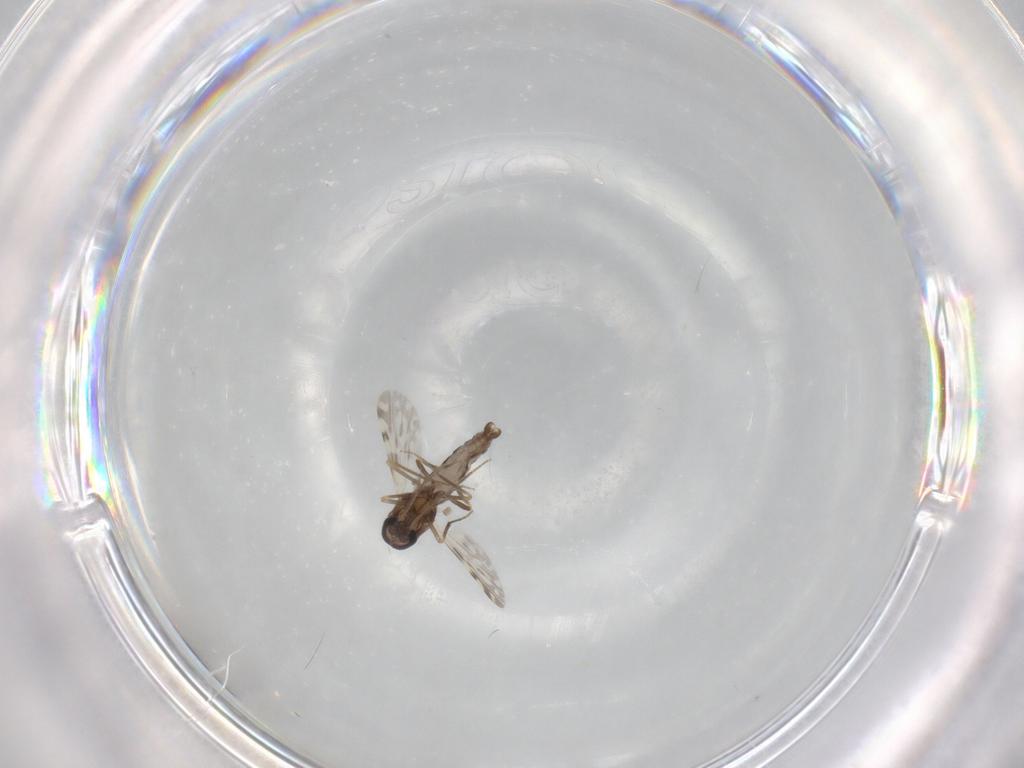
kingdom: Animalia
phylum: Arthropoda
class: Insecta
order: Diptera
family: Ceratopogonidae
